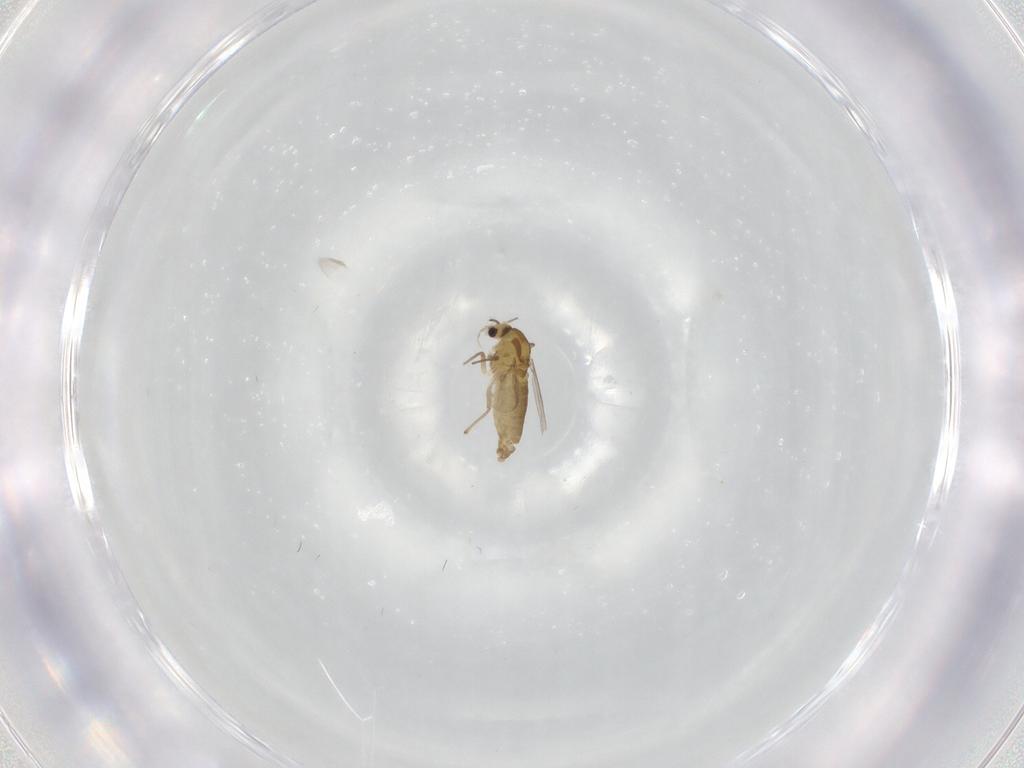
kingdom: Animalia
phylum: Arthropoda
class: Insecta
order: Diptera
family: Chironomidae
